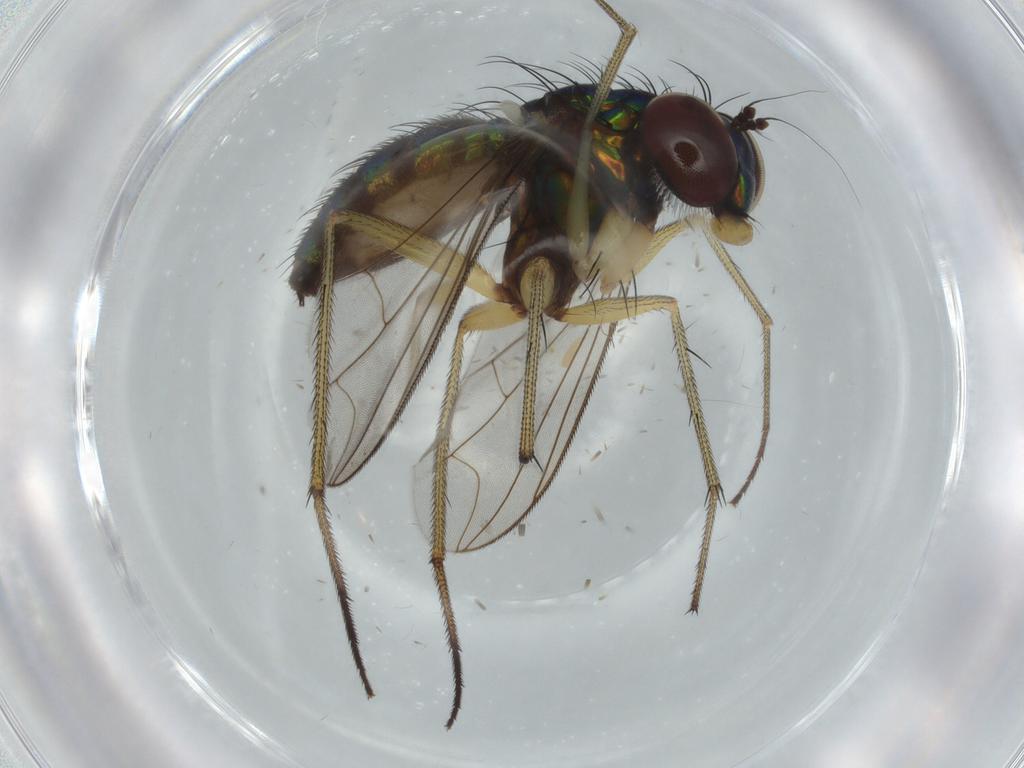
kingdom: Animalia
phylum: Arthropoda
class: Insecta
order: Diptera
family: Dolichopodidae
